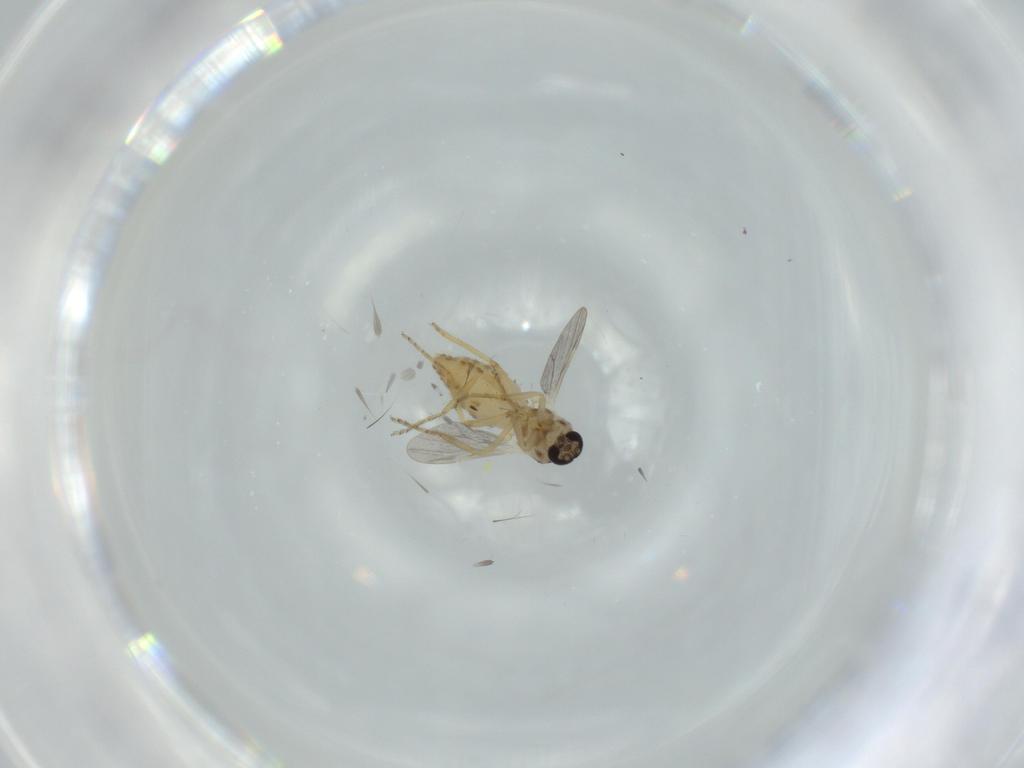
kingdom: Animalia
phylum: Arthropoda
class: Insecta
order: Diptera
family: Ceratopogonidae
